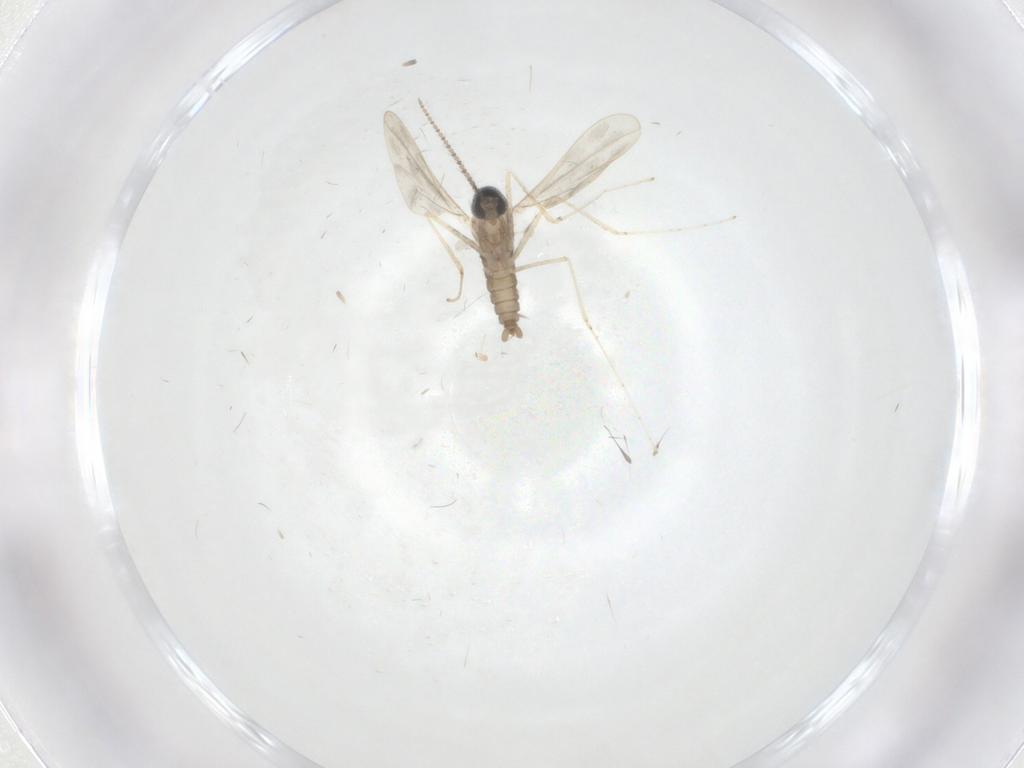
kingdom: Animalia
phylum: Arthropoda
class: Insecta
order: Diptera
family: Cecidomyiidae
